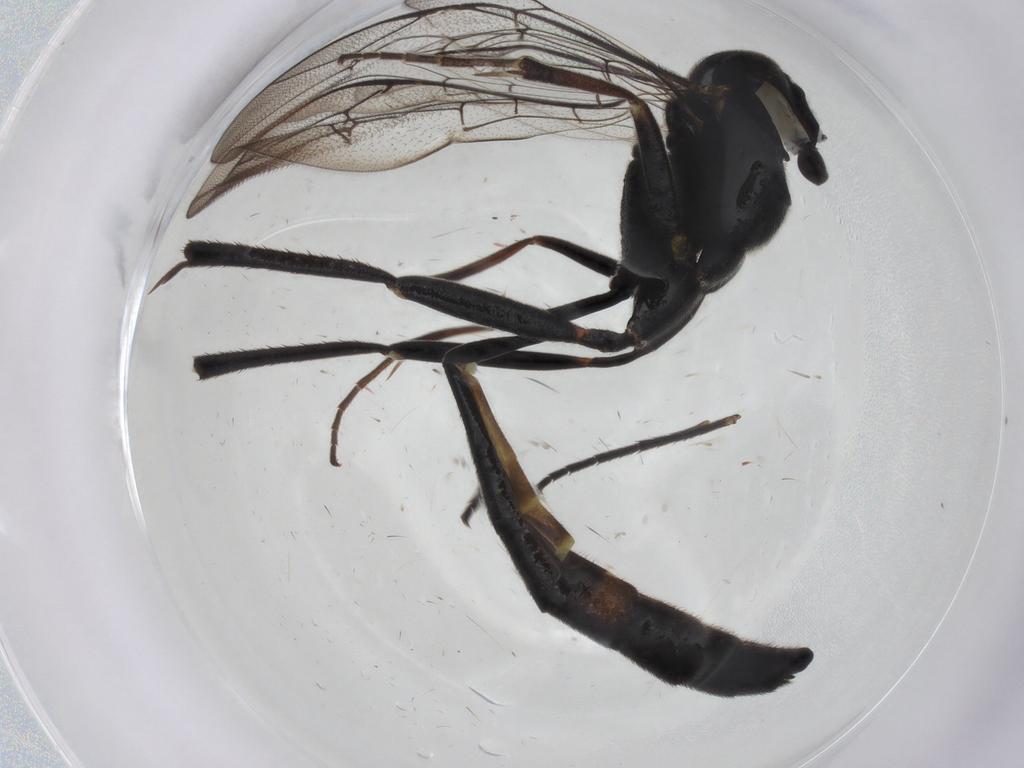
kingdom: Animalia
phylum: Arthropoda
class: Insecta
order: Hymenoptera
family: Ichneumonidae
